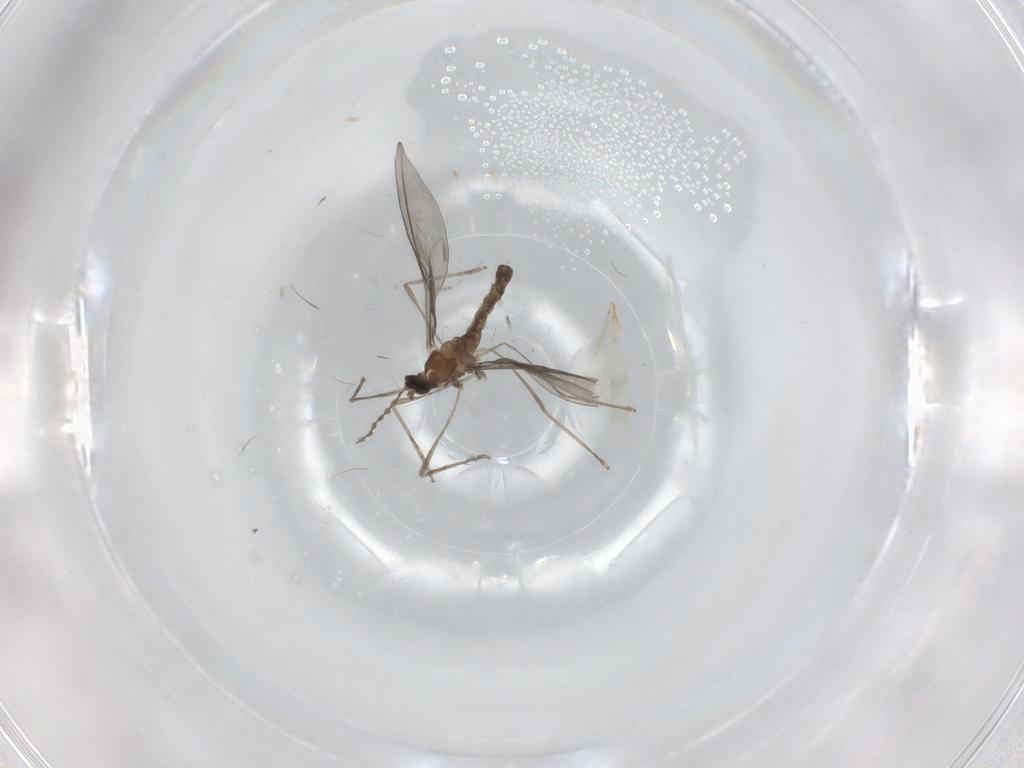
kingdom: Animalia
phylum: Arthropoda
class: Insecta
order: Diptera
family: Cecidomyiidae
